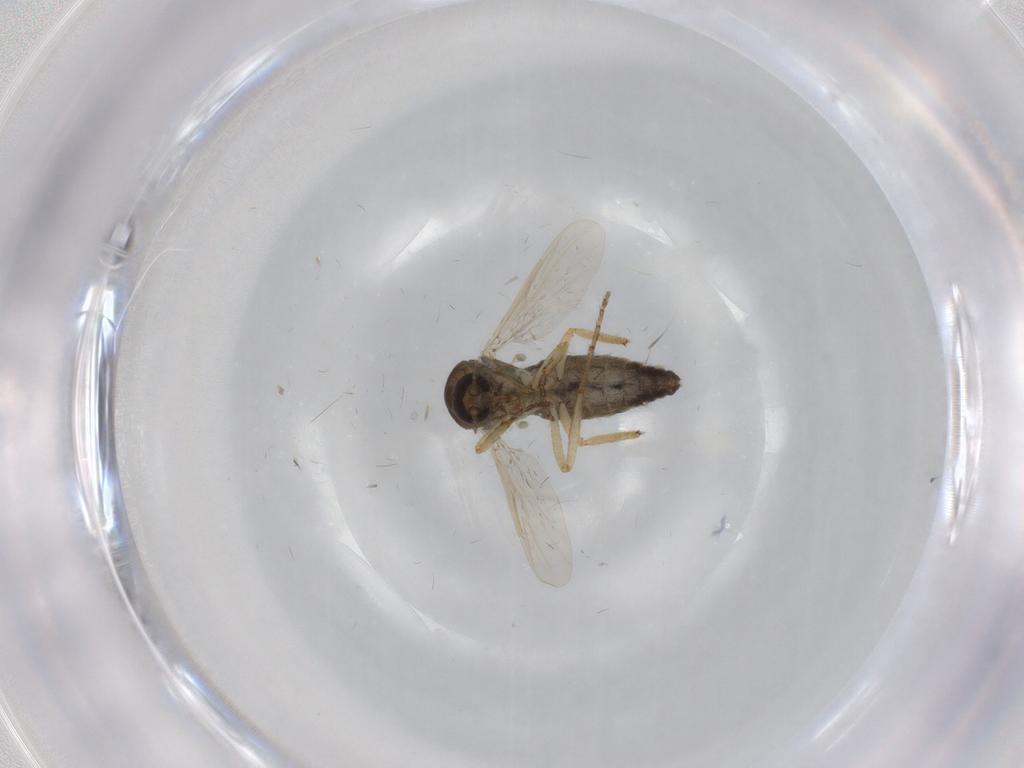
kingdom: Animalia
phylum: Arthropoda
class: Insecta
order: Diptera
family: Ceratopogonidae
